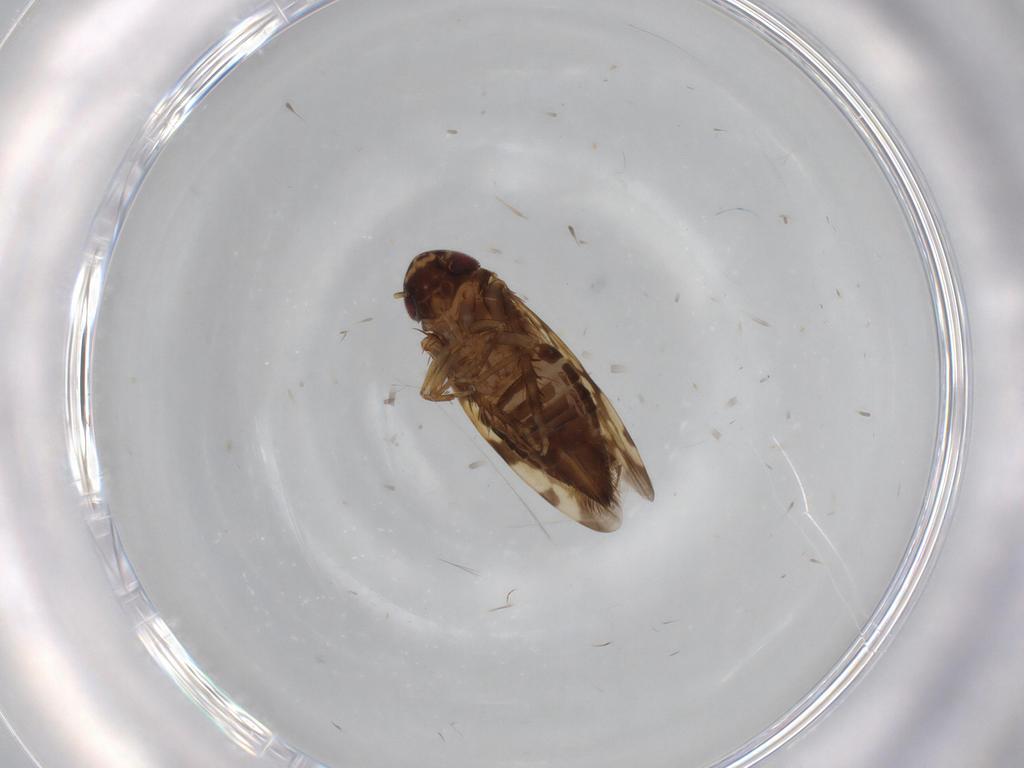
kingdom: Animalia
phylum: Arthropoda
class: Insecta
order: Hemiptera
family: Cicadellidae
